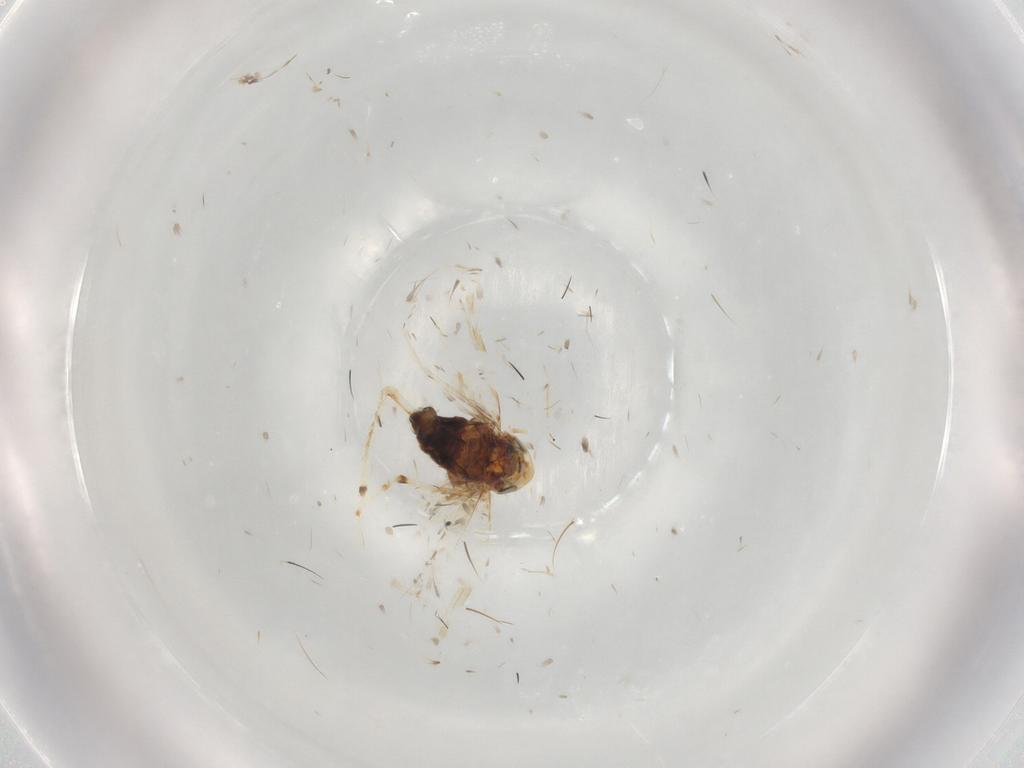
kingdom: Animalia
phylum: Arthropoda
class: Insecta
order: Hemiptera
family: Cicadellidae
